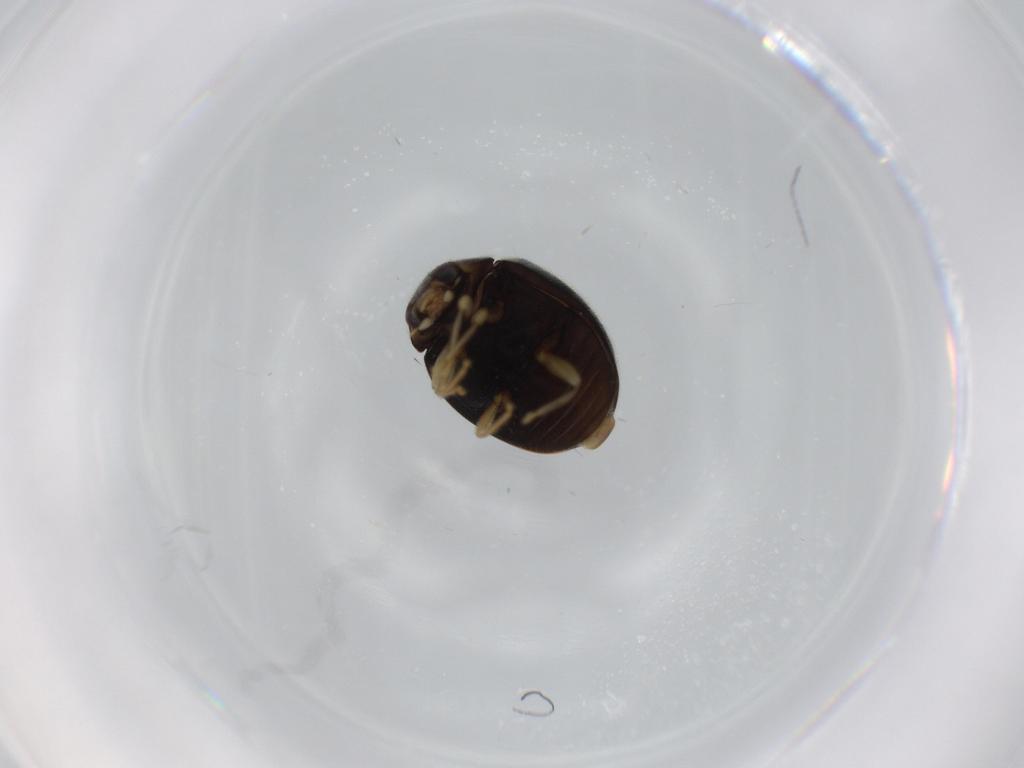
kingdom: Animalia
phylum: Arthropoda
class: Insecta
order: Coleoptera
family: Coccinellidae
